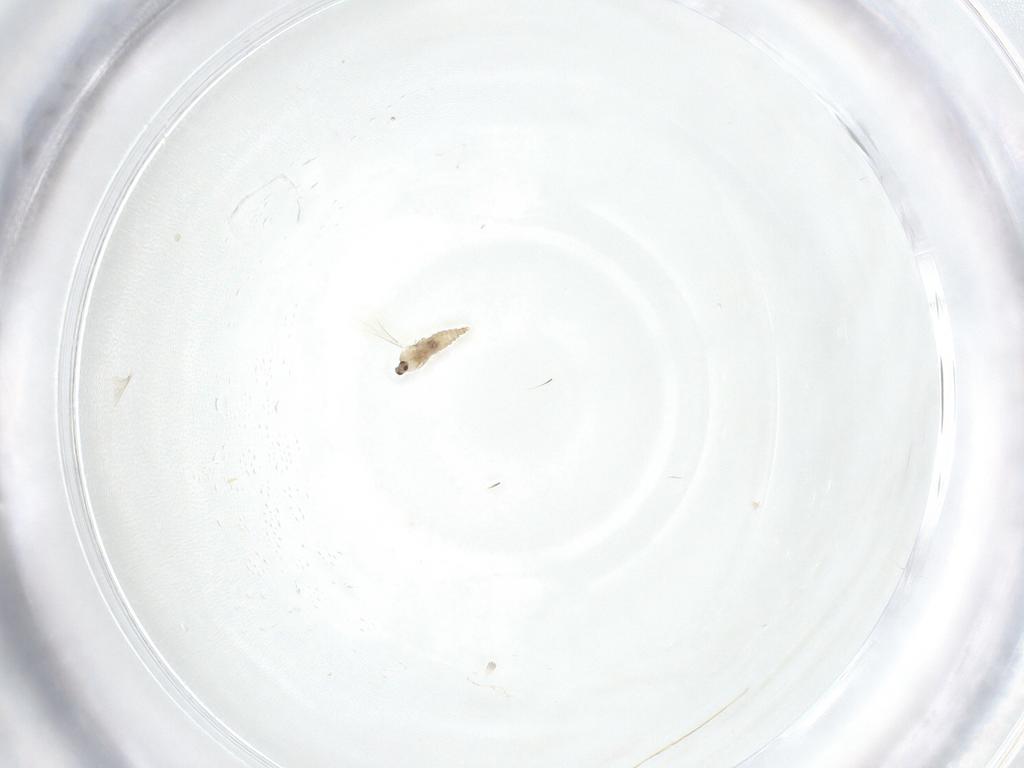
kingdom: Animalia
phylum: Arthropoda
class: Insecta
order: Diptera
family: Cecidomyiidae
